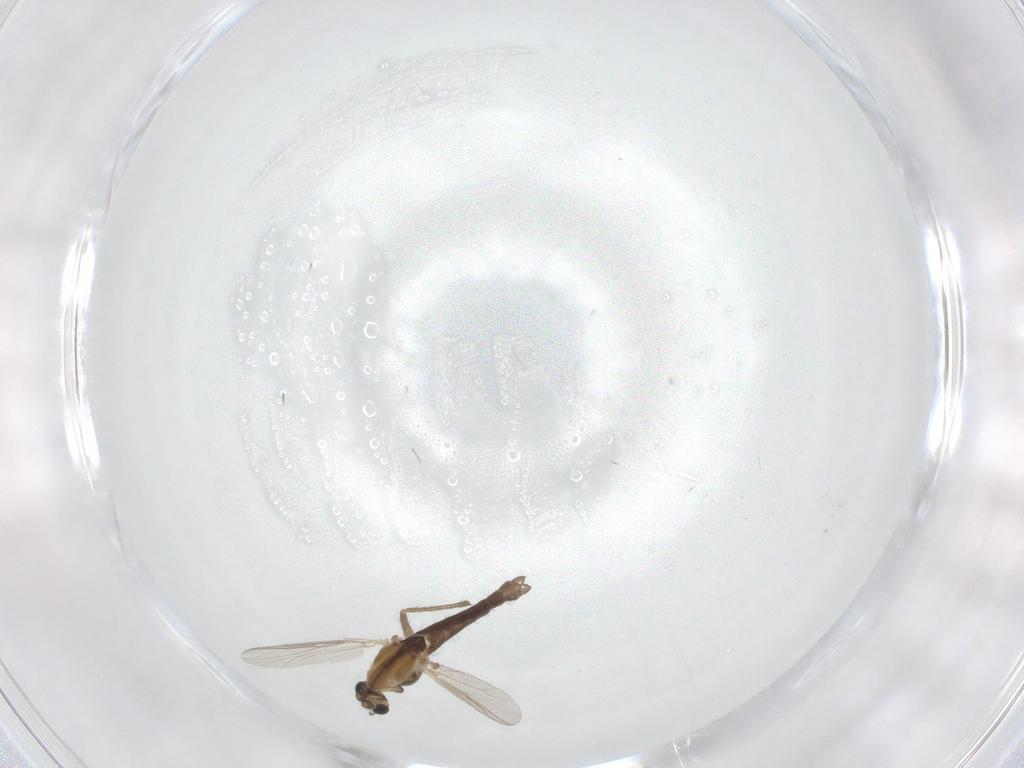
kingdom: Animalia
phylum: Arthropoda
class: Insecta
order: Diptera
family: Chironomidae
